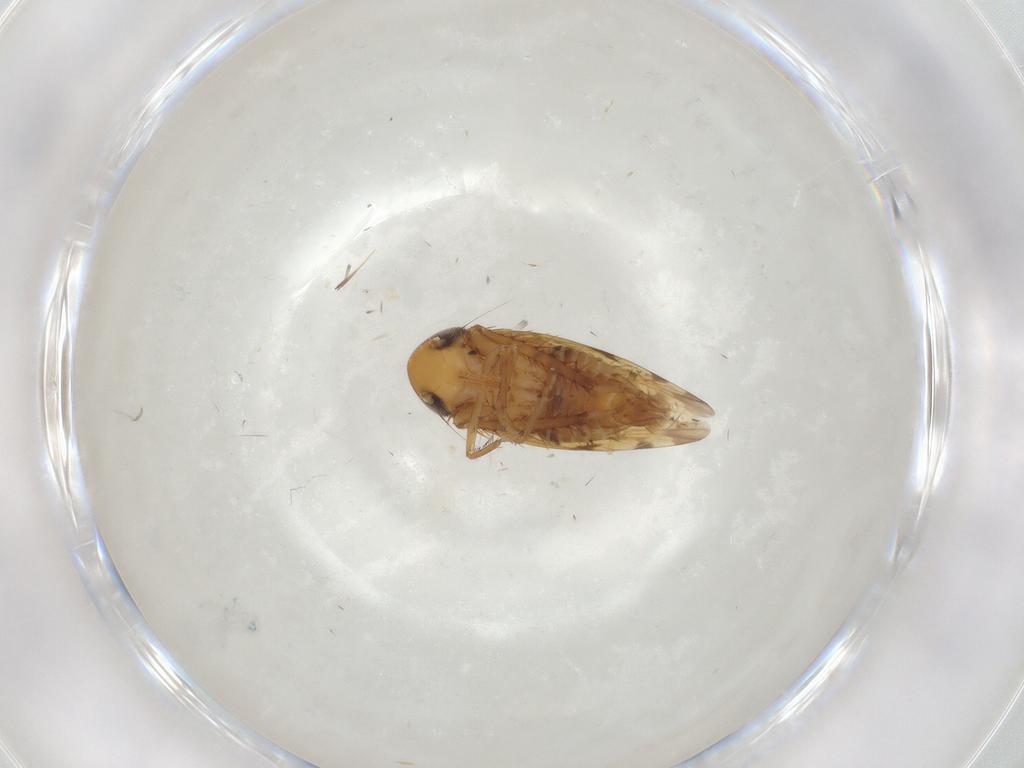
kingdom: Animalia
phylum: Arthropoda
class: Insecta
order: Hemiptera
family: Cicadellidae
